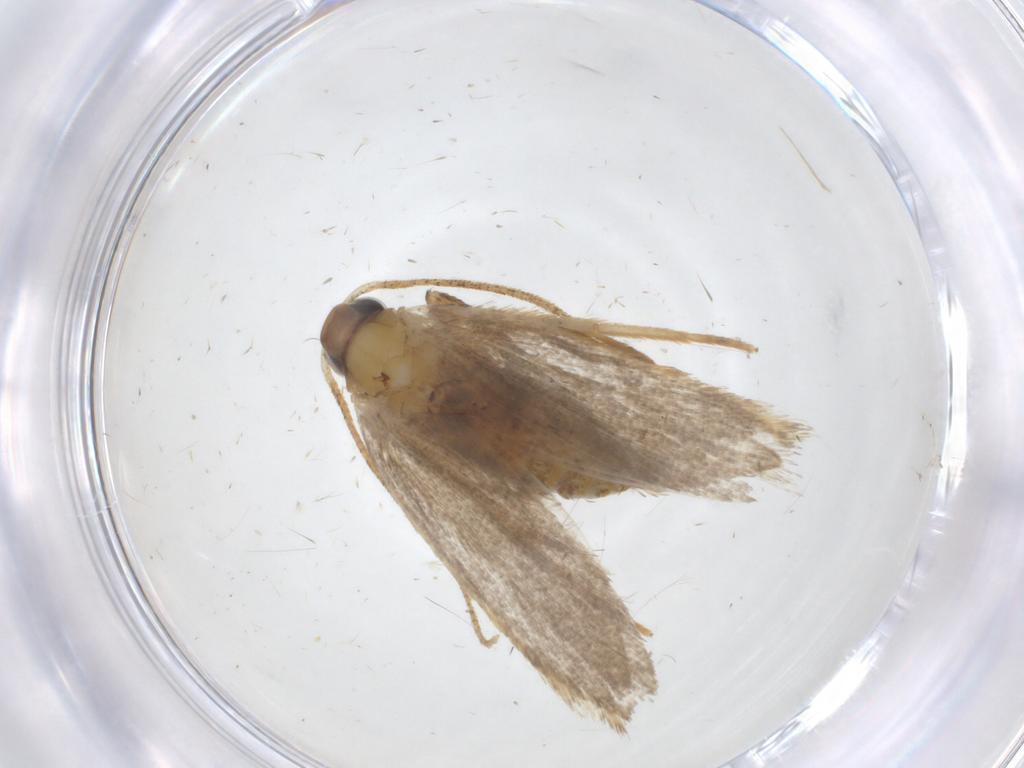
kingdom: Animalia
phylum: Arthropoda
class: Insecta
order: Lepidoptera
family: Oecophoridae
